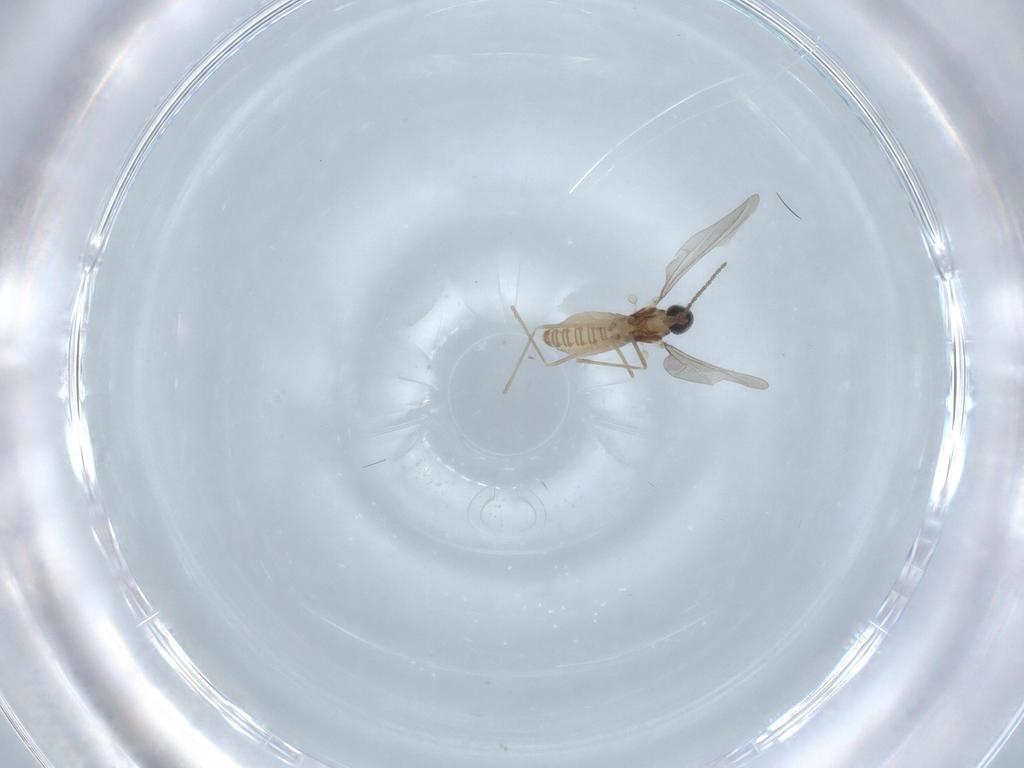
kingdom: Animalia
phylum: Arthropoda
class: Insecta
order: Diptera
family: Cecidomyiidae
